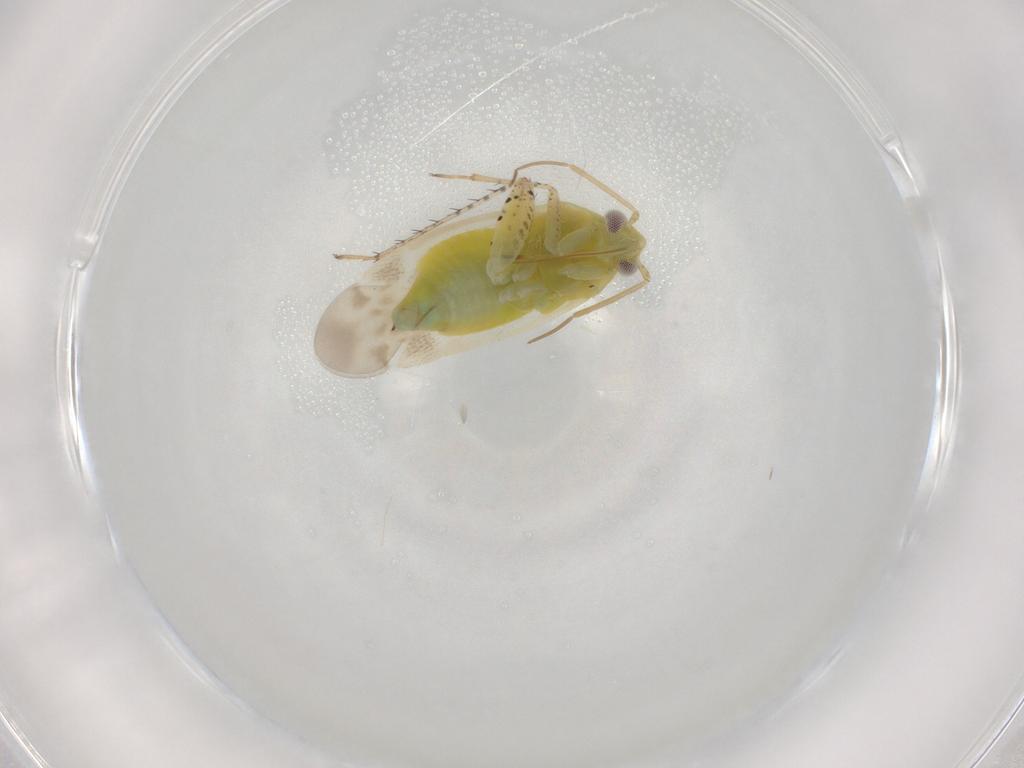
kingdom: Animalia
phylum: Arthropoda
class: Insecta
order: Hemiptera
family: Miridae
